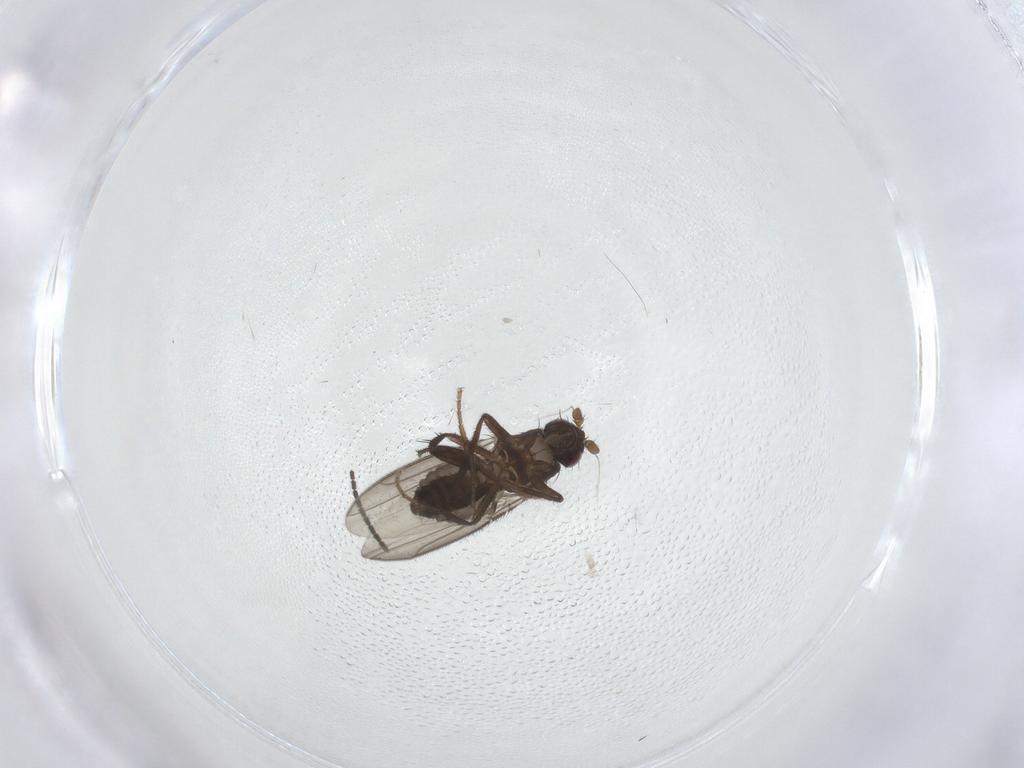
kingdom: Animalia
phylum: Arthropoda
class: Insecta
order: Diptera
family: Sphaeroceridae
